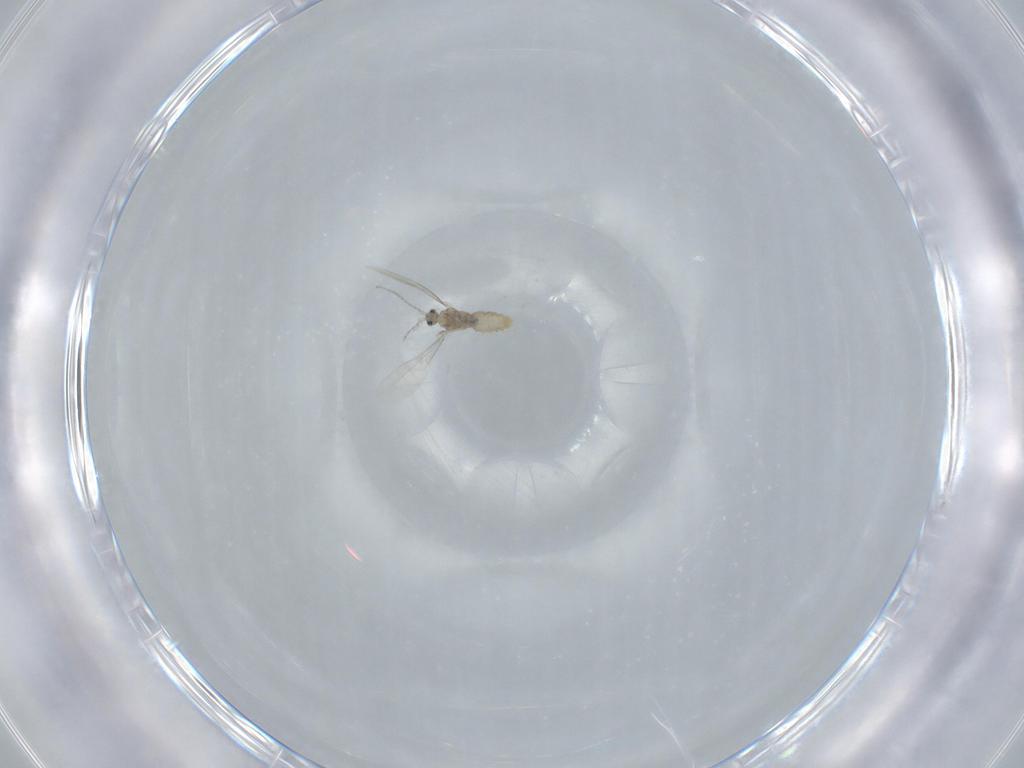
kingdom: Animalia
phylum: Arthropoda
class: Insecta
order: Diptera
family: Cecidomyiidae
